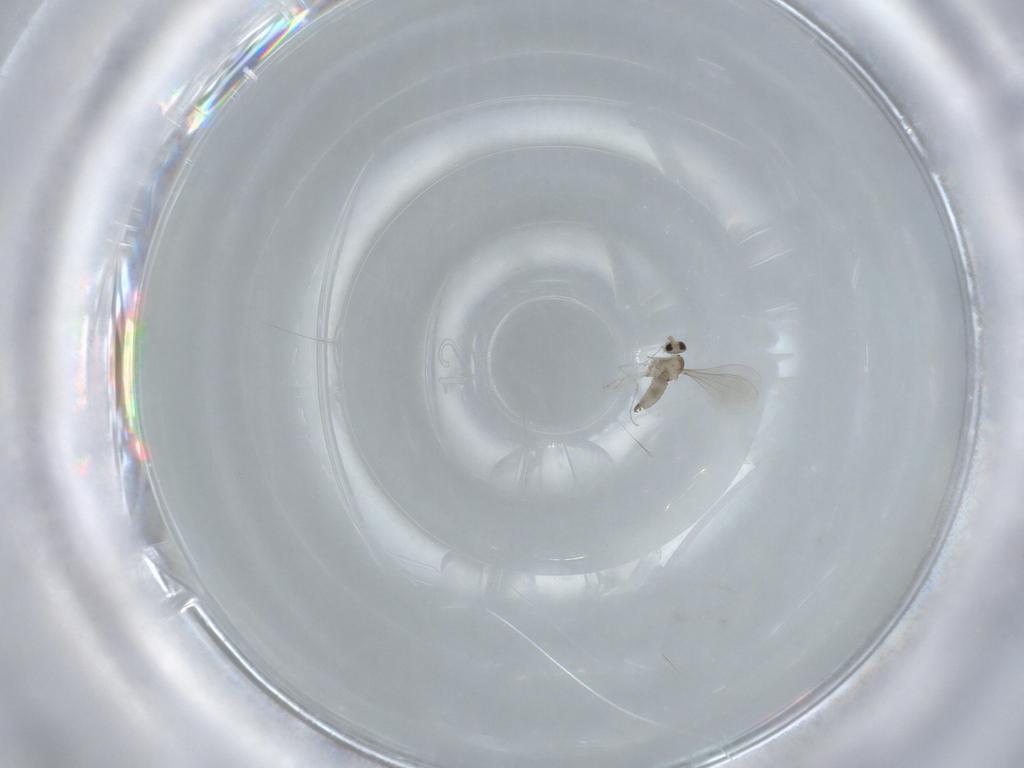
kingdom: Animalia
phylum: Arthropoda
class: Insecta
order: Diptera
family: Cecidomyiidae
